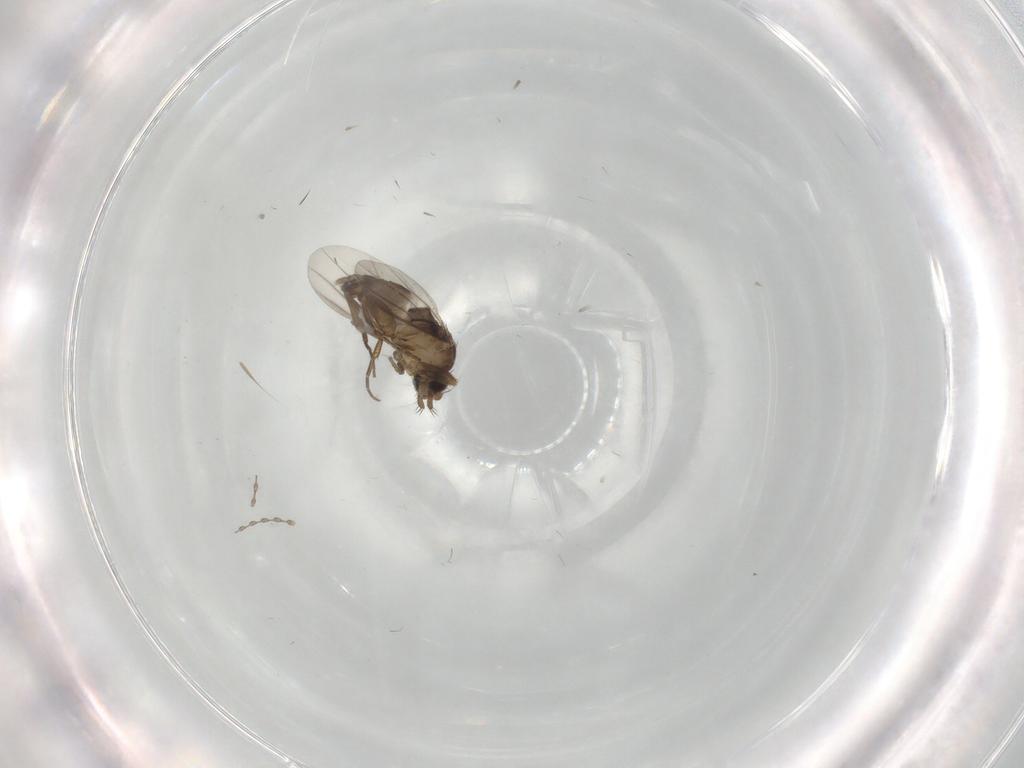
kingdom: Animalia
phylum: Arthropoda
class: Insecta
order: Diptera
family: Phoridae
